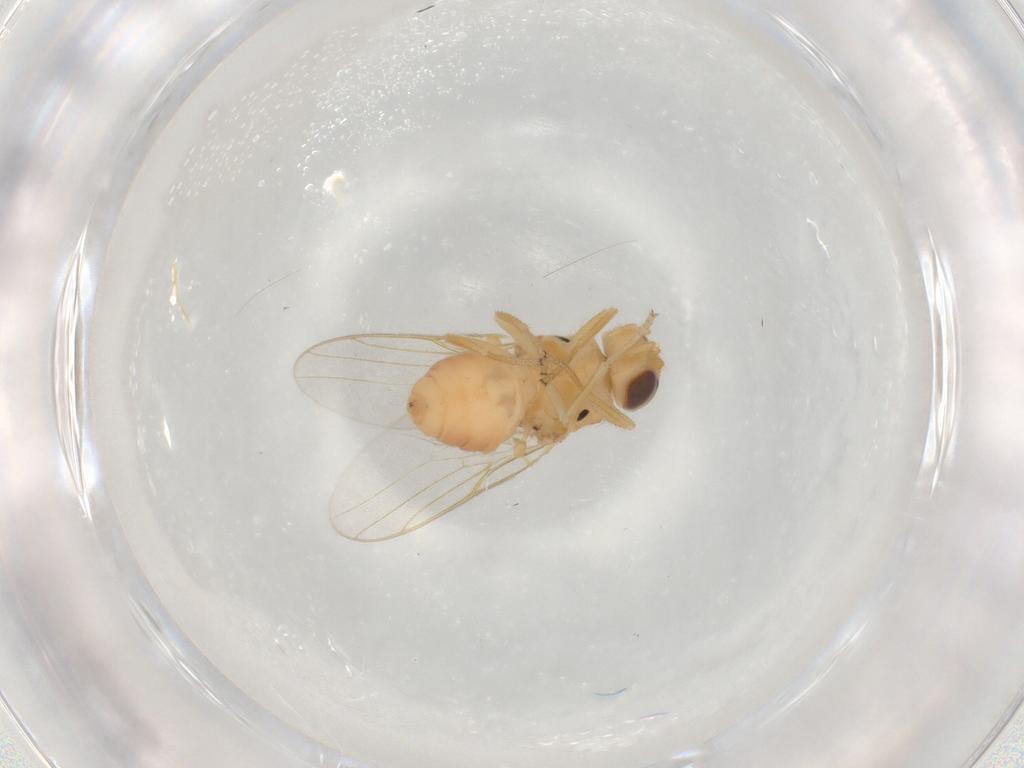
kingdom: Animalia
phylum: Arthropoda
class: Insecta
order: Diptera
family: Chloropidae
